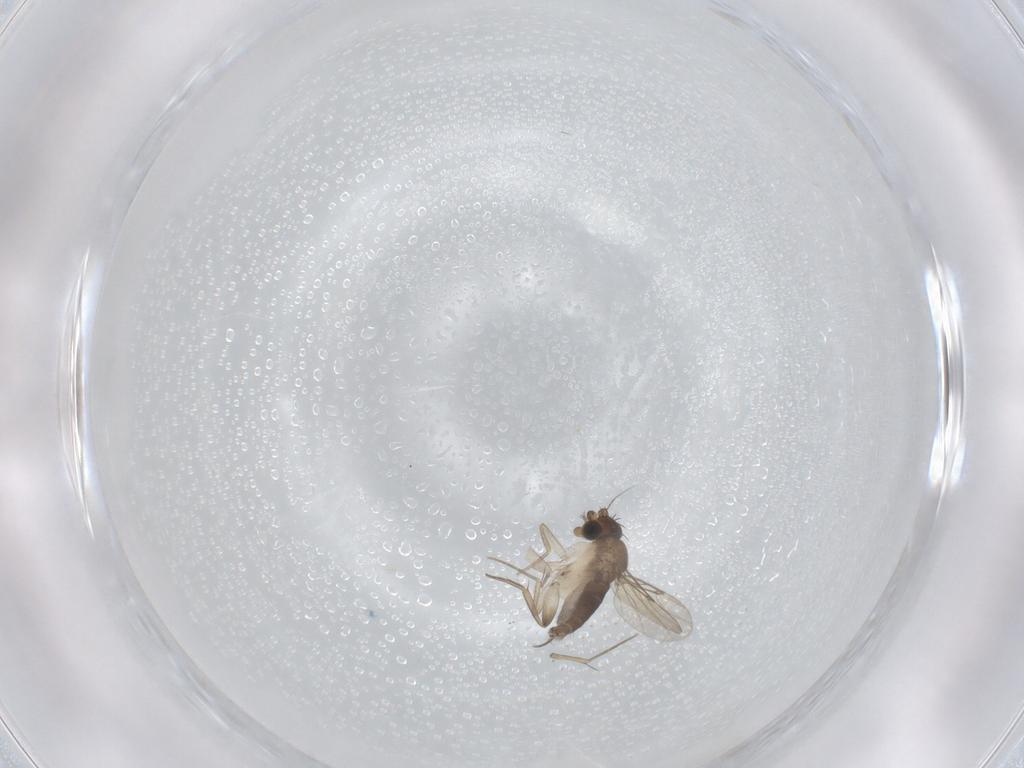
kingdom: Animalia
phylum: Arthropoda
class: Insecta
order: Diptera
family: Phoridae
